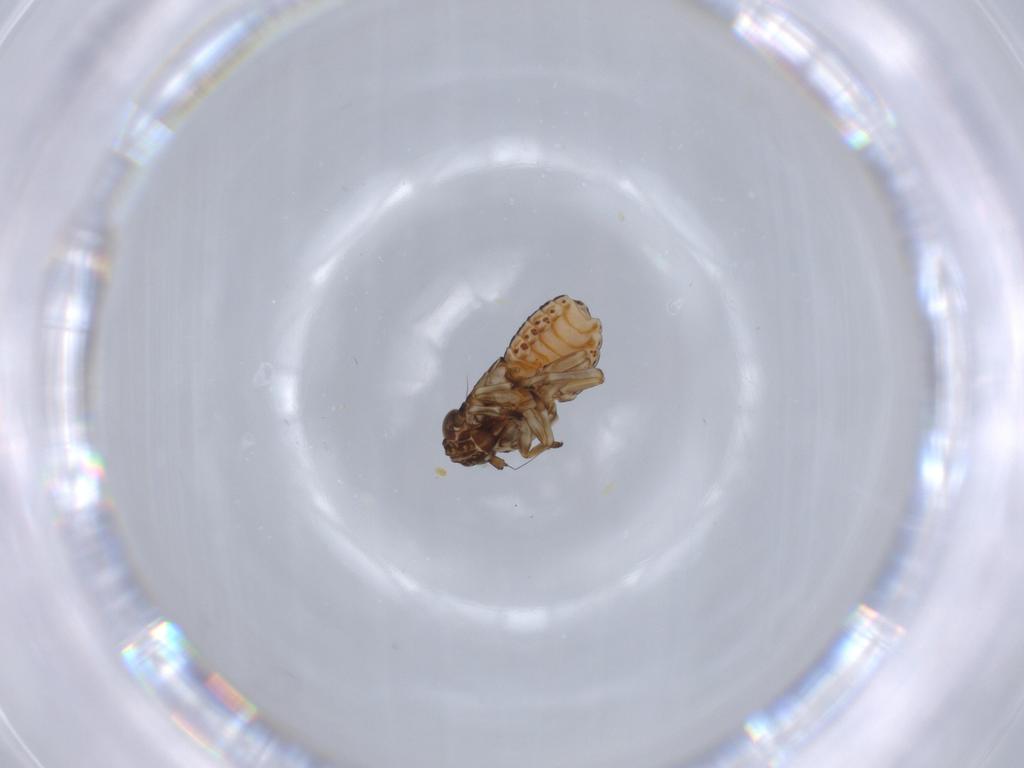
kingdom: Animalia
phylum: Arthropoda
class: Insecta
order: Hemiptera
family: Delphacidae
